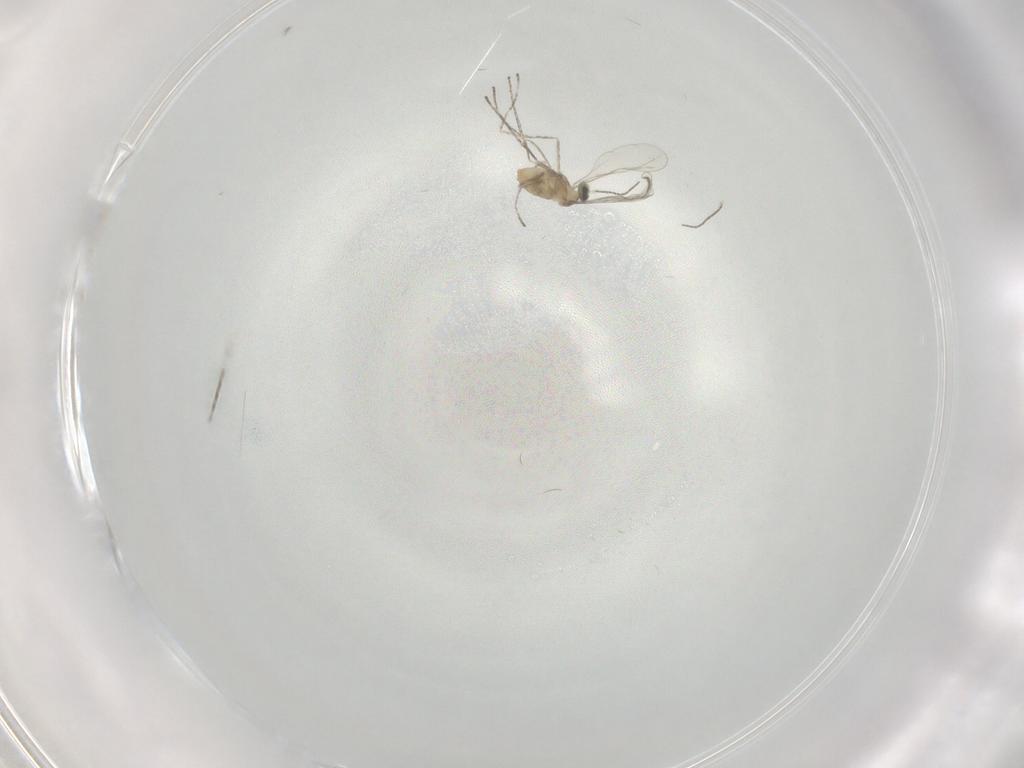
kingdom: Animalia
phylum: Arthropoda
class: Insecta
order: Diptera
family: Cecidomyiidae
